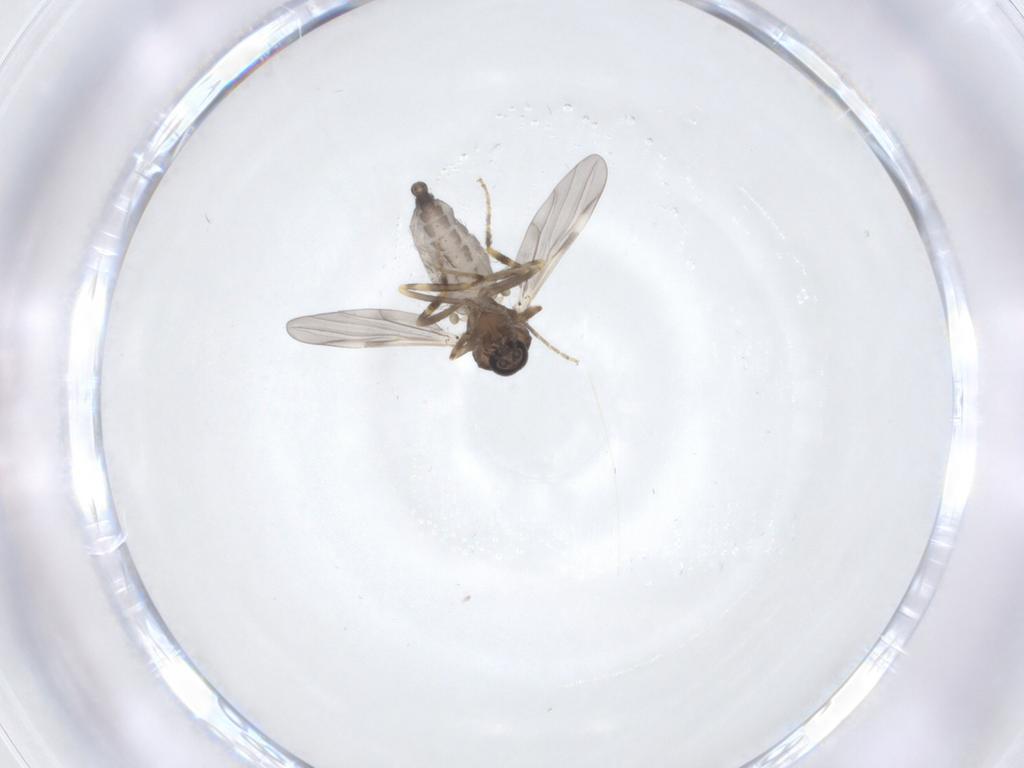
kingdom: Animalia
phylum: Arthropoda
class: Insecta
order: Diptera
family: Ceratopogonidae
